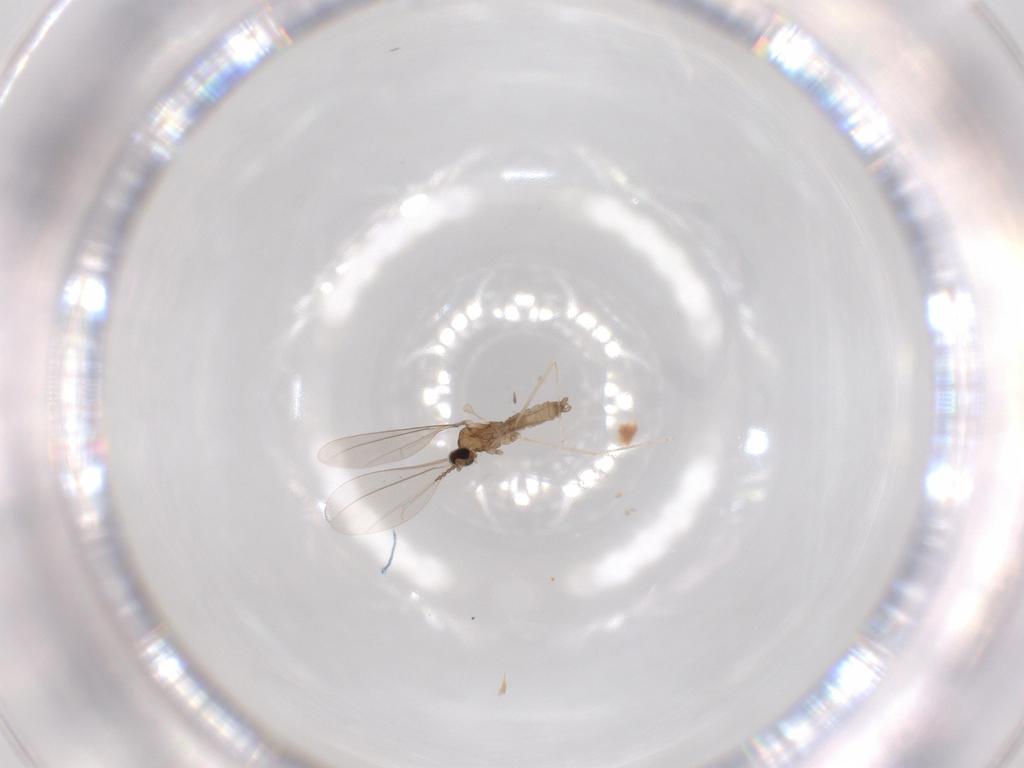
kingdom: Animalia
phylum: Arthropoda
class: Insecta
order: Diptera
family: Cecidomyiidae
